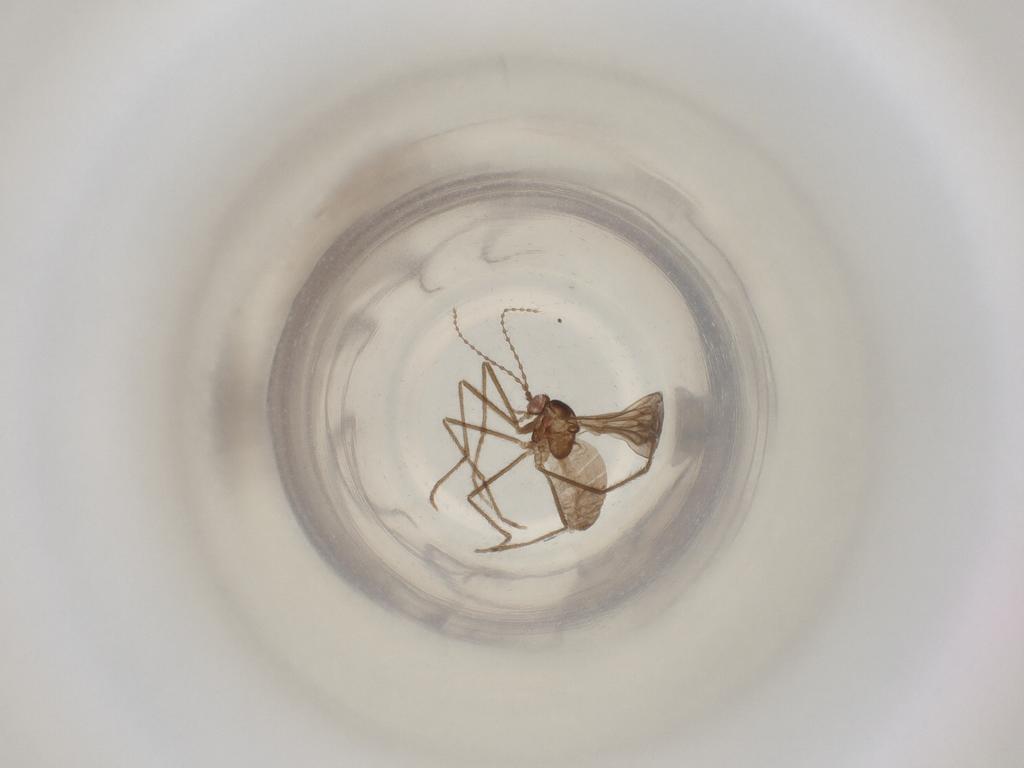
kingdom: Animalia
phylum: Arthropoda
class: Insecta
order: Diptera
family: Cecidomyiidae
